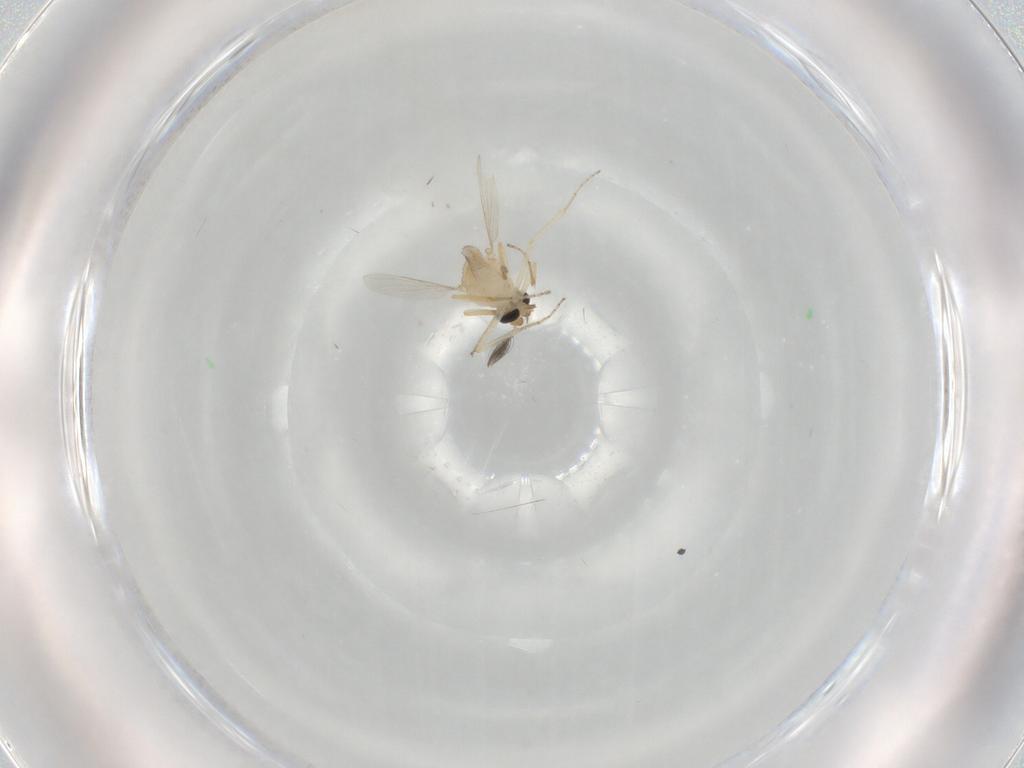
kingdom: Animalia
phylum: Arthropoda
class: Insecta
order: Diptera
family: Ceratopogonidae
